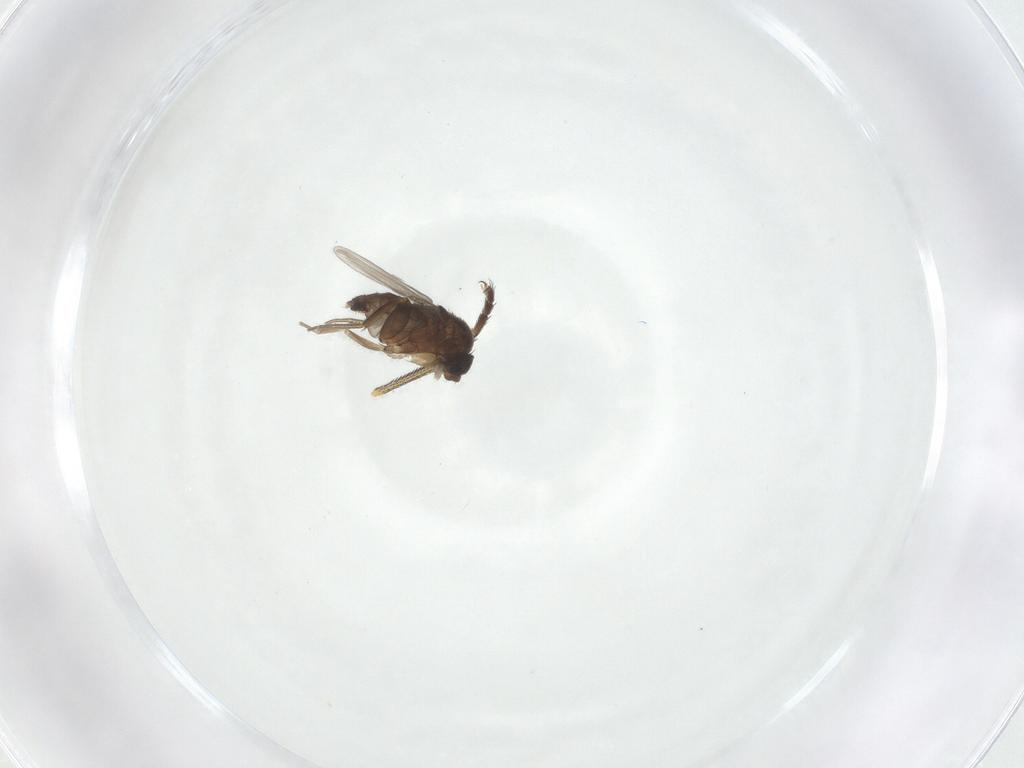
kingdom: Animalia
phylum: Arthropoda
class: Insecta
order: Diptera
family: Phoridae
